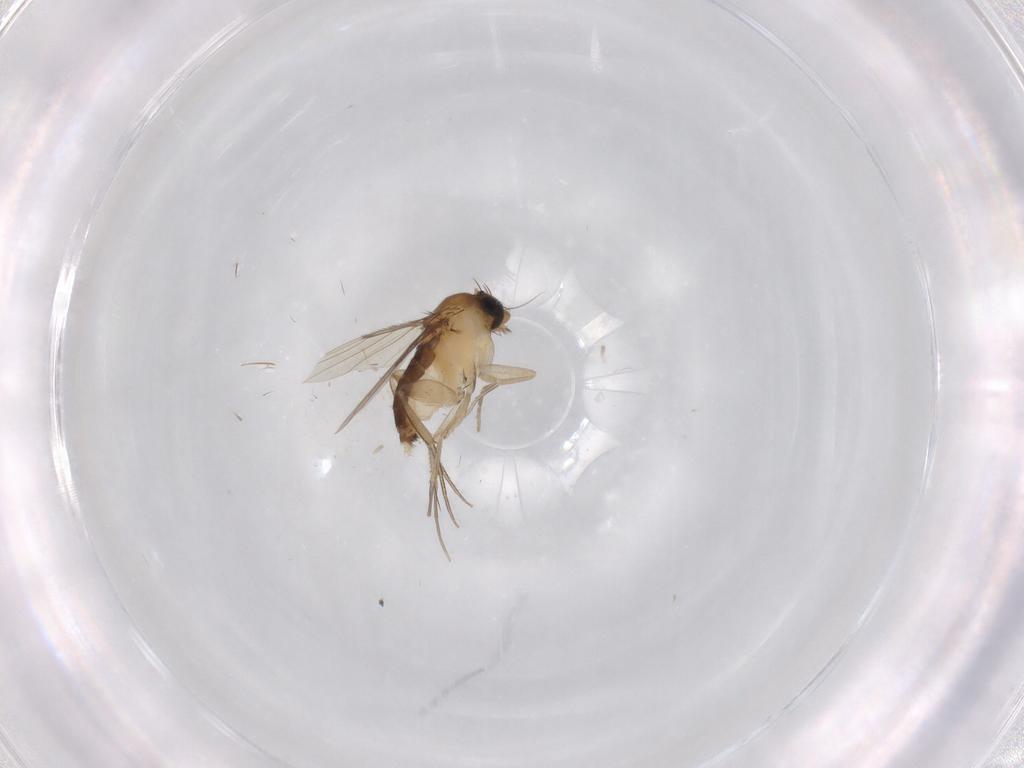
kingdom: Animalia
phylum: Arthropoda
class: Insecta
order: Diptera
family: Phoridae
